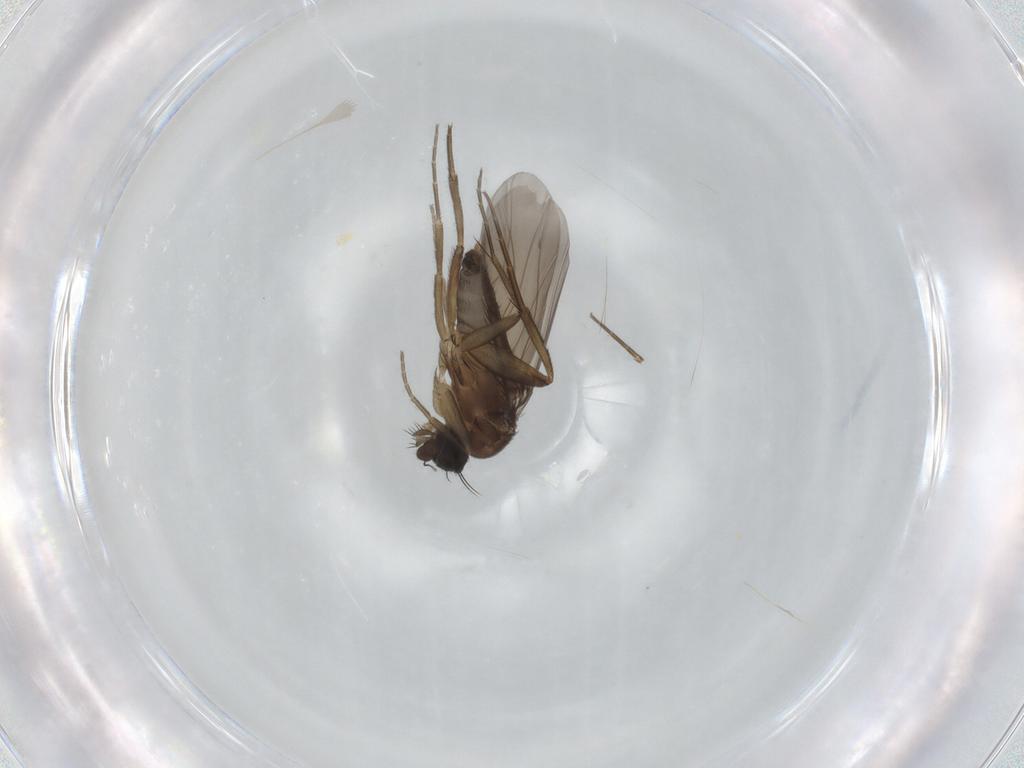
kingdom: Animalia
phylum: Arthropoda
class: Insecta
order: Diptera
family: Phoridae
